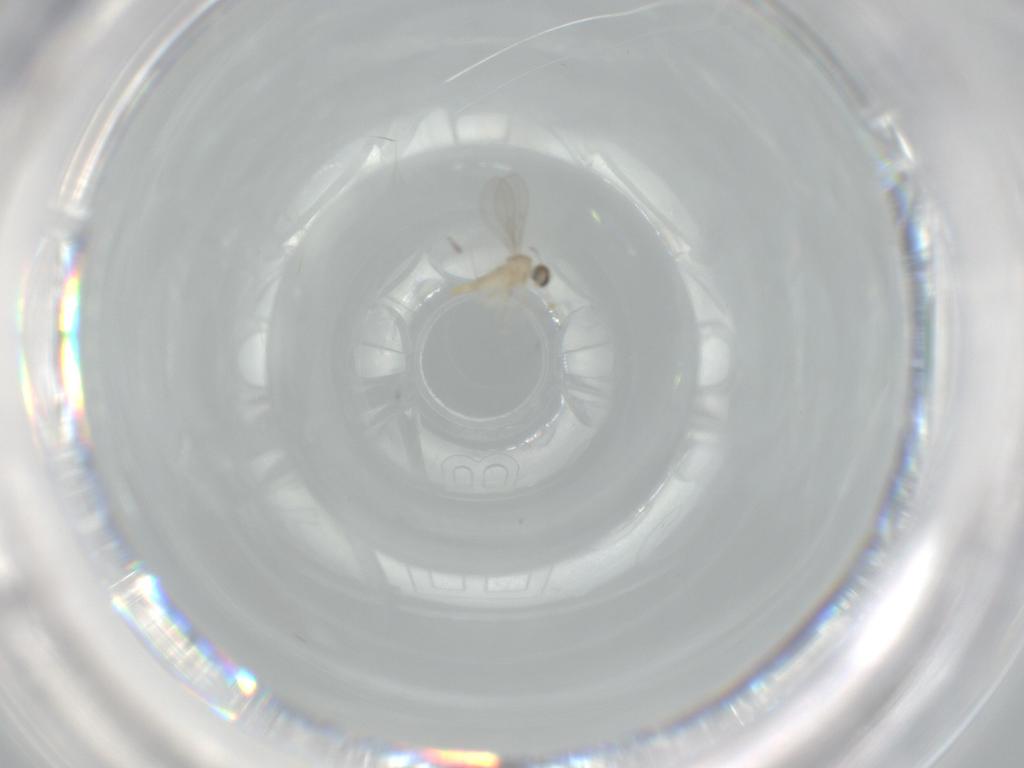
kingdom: Animalia
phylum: Arthropoda
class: Insecta
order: Diptera
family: Cecidomyiidae
